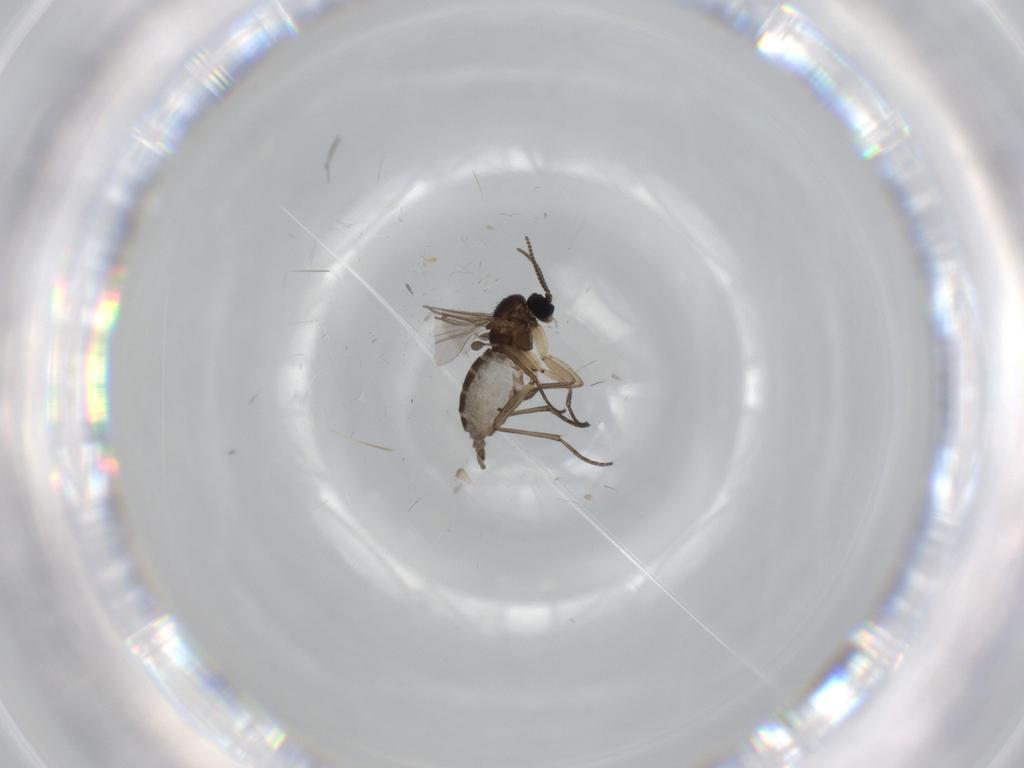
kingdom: Animalia
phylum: Arthropoda
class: Insecta
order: Diptera
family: Sciaridae
